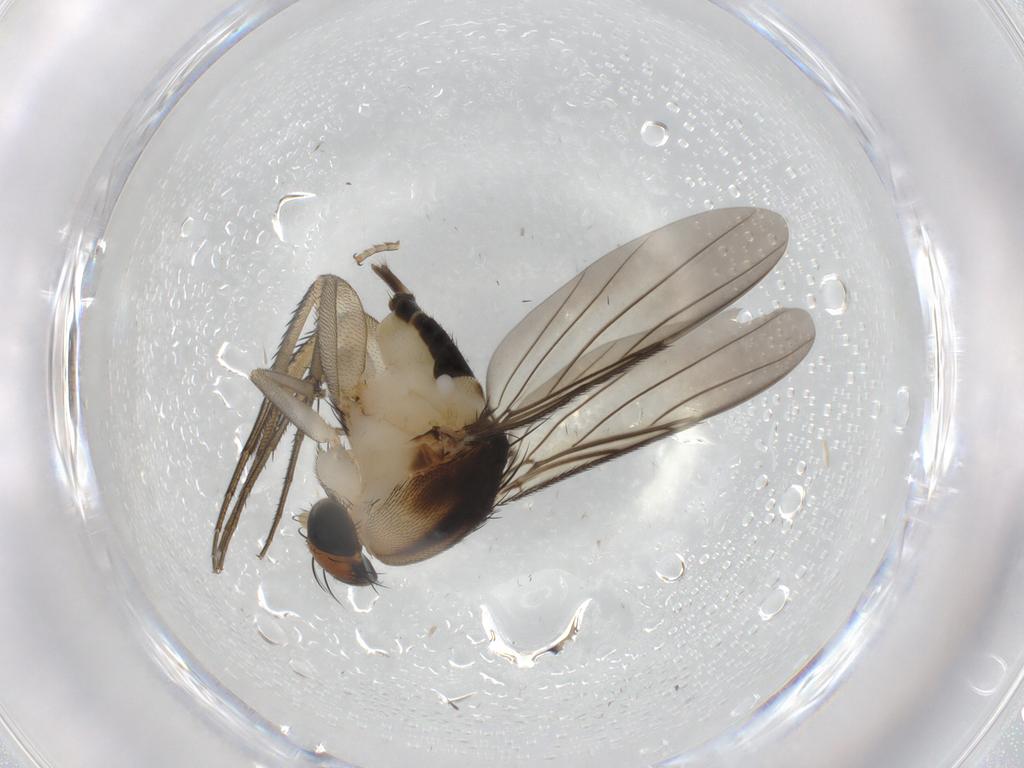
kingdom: Animalia
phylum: Arthropoda
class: Insecta
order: Diptera
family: Phoridae
